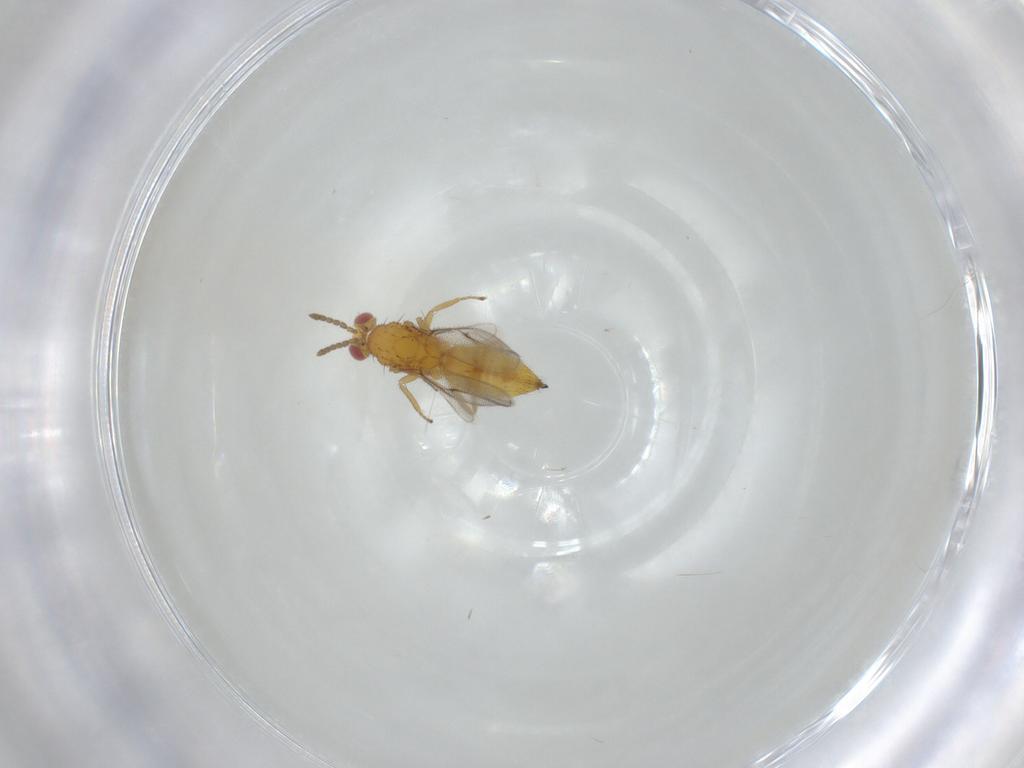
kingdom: Animalia
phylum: Arthropoda
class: Insecta
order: Hymenoptera
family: Eulophidae
